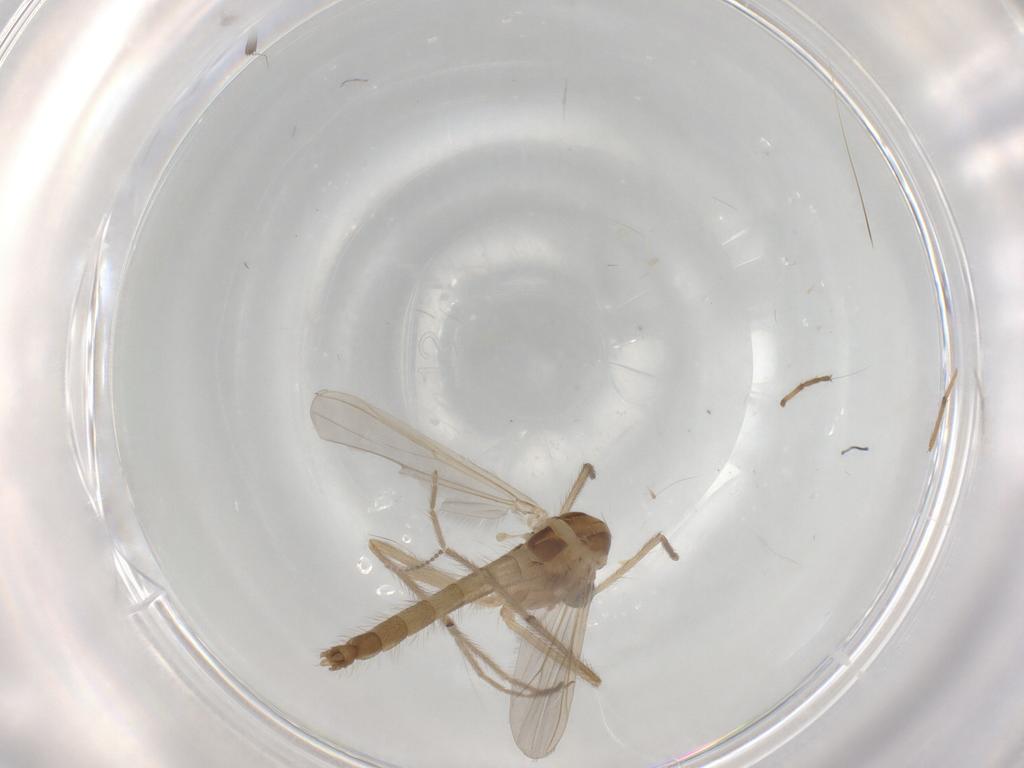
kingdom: Animalia
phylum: Arthropoda
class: Insecta
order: Diptera
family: Chironomidae
